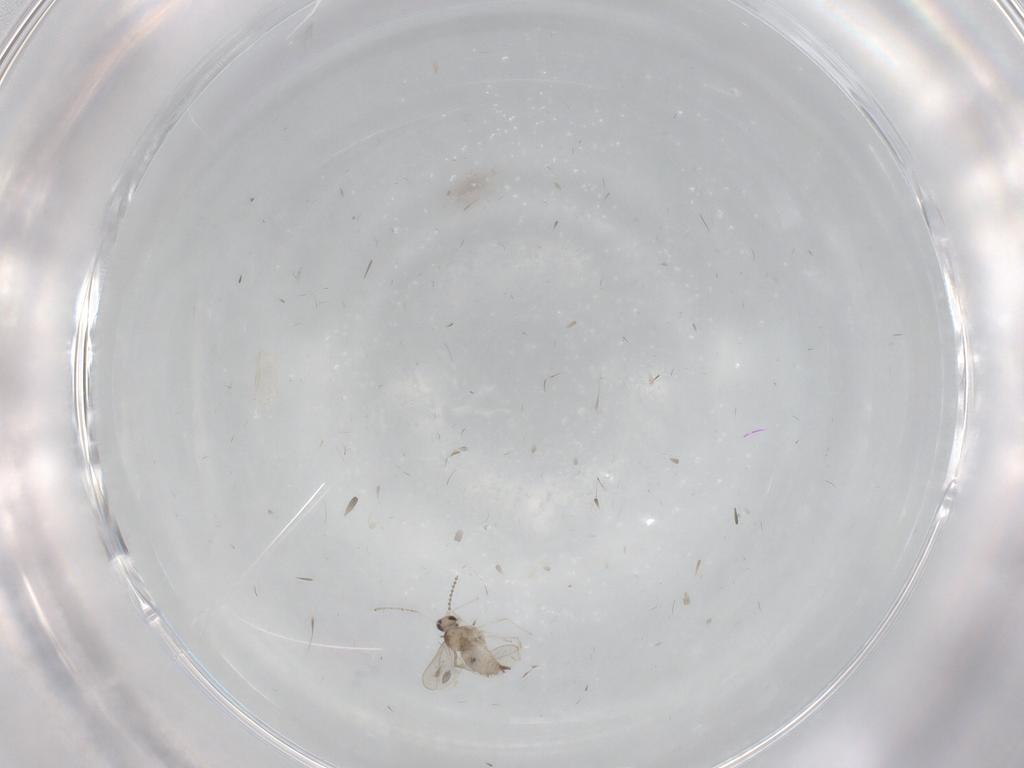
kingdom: Animalia
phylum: Arthropoda
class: Insecta
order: Diptera
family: Cecidomyiidae
